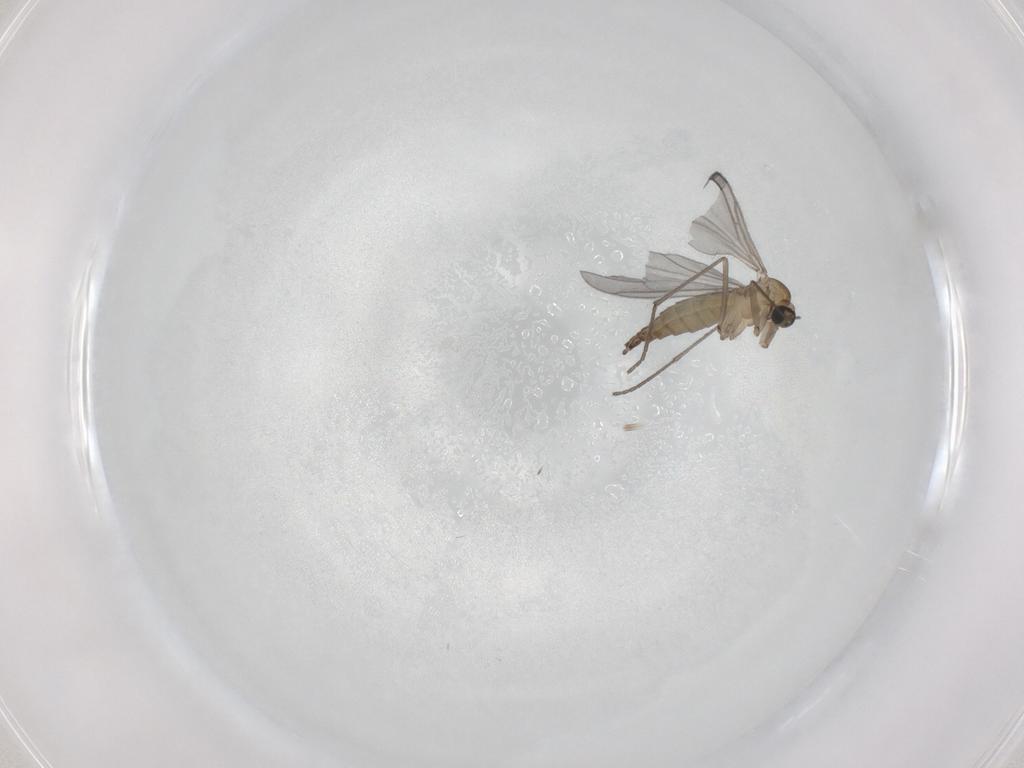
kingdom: Animalia
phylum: Arthropoda
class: Insecta
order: Diptera
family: Sciaridae
